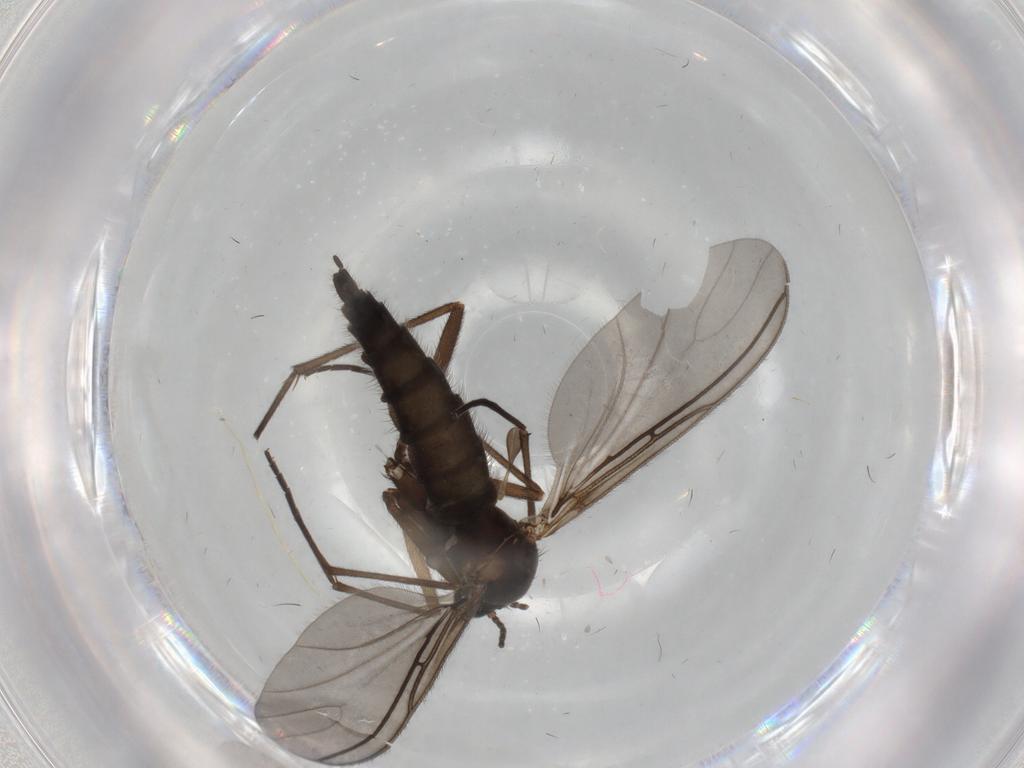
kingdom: Animalia
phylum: Arthropoda
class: Insecta
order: Diptera
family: Sciaridae
